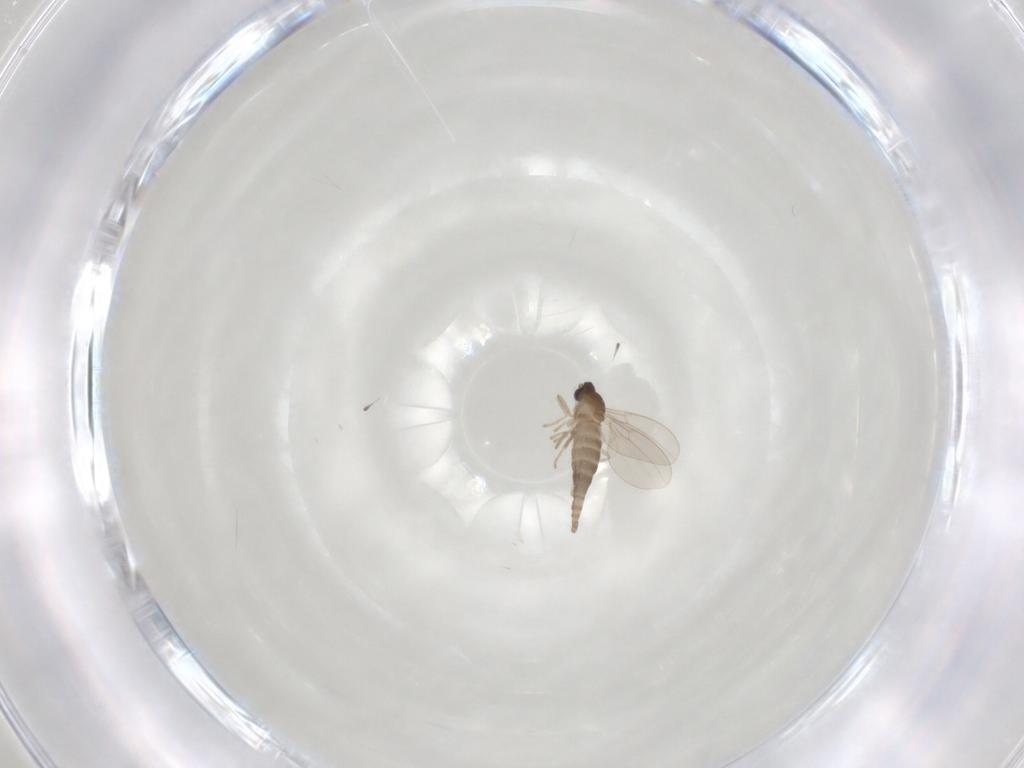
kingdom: Animalia
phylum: Arthropoda
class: Insecta
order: Diptera
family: Cecidomyiidae
